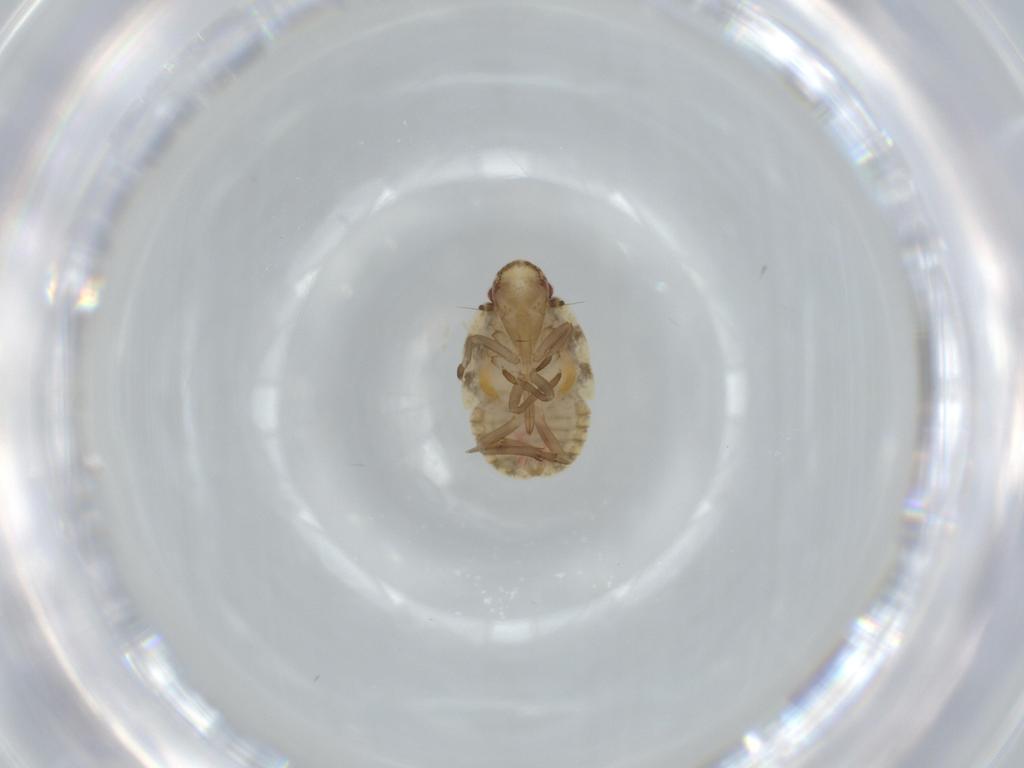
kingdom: Animalia
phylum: Arthropoda
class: Insecta
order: Hemiptera
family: Flatidae
